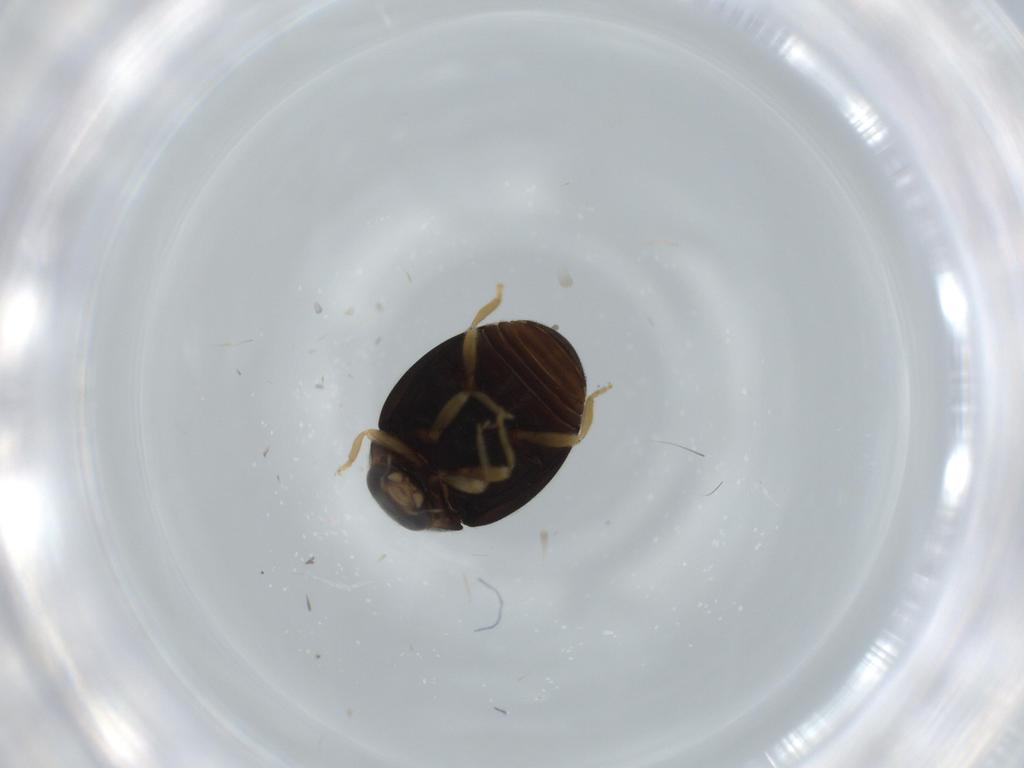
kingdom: Animalia
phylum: Arthropoda
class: Insecta
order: Coleoptera
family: Coccinellidae
